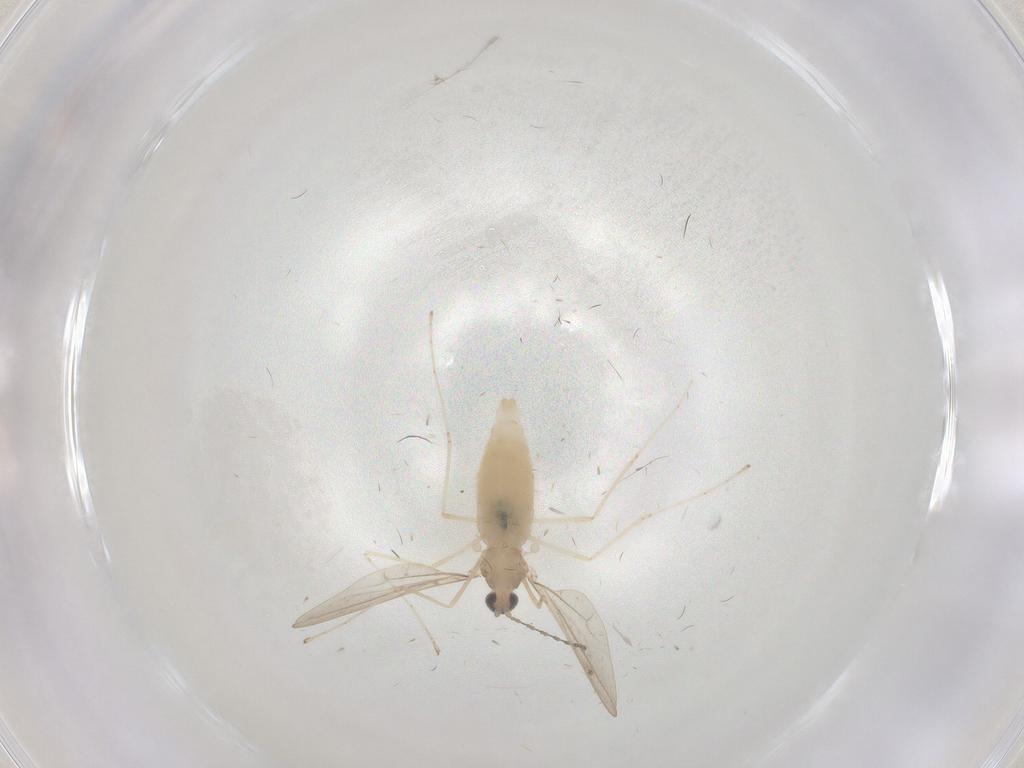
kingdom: Animalia
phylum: Arthropoda
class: Insecta
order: Diptera
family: Cecidomyiidae
